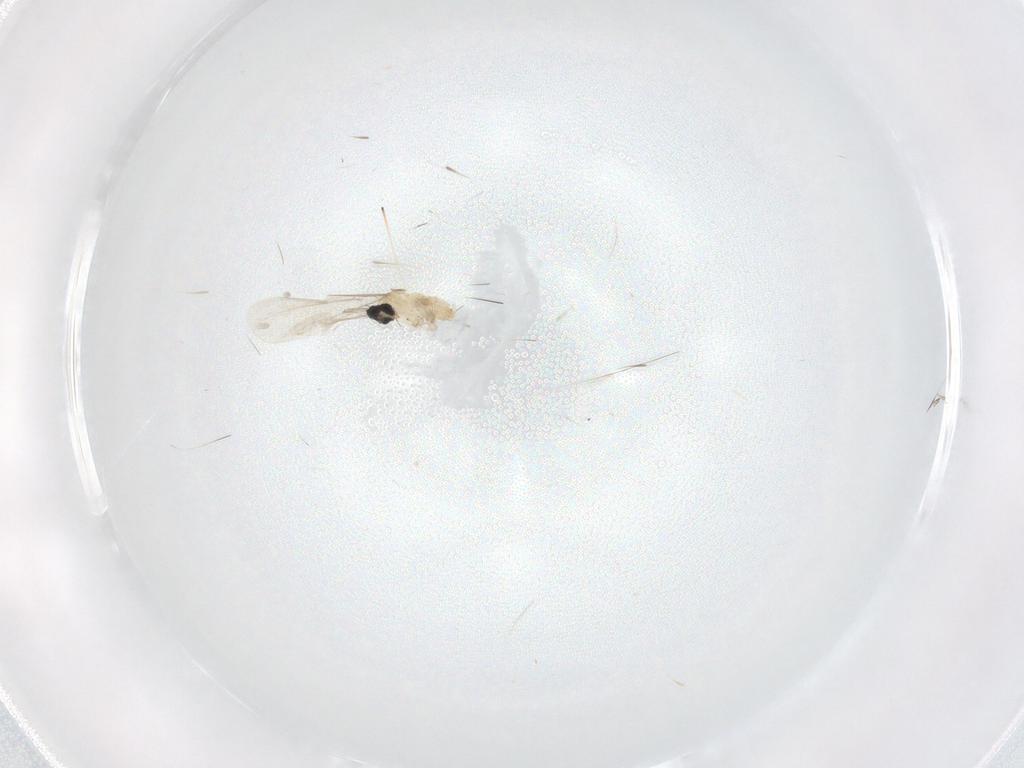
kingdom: Animalia
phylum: Arthropoda
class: Insecta
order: Diptera
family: Cecidomyiidae
